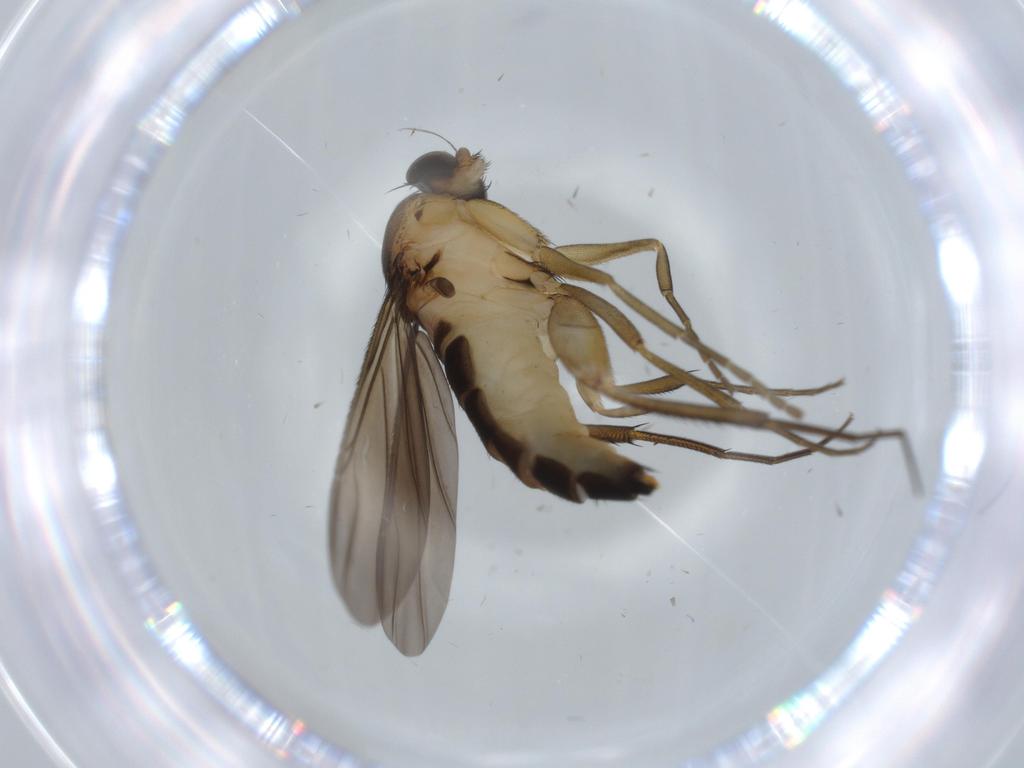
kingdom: Animalia
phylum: Arthropoda
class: Insecta
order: Diptera
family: Phoridae
